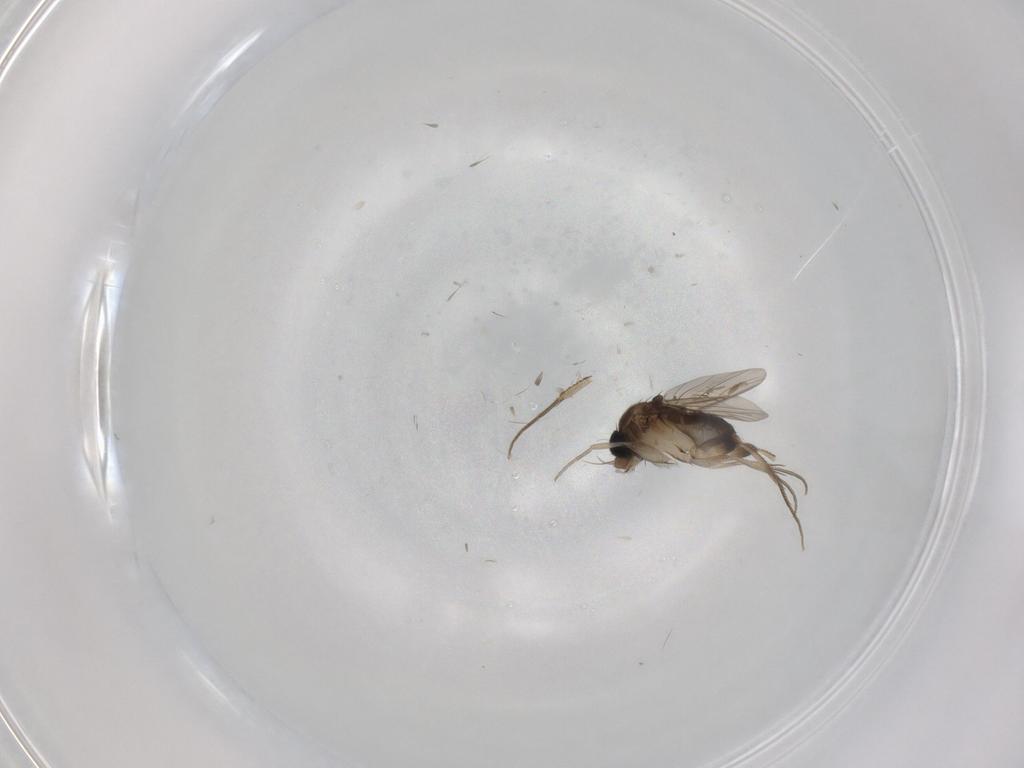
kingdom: Animalia
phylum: Arthropoda
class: Insecta
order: Diptera
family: Phoridae
